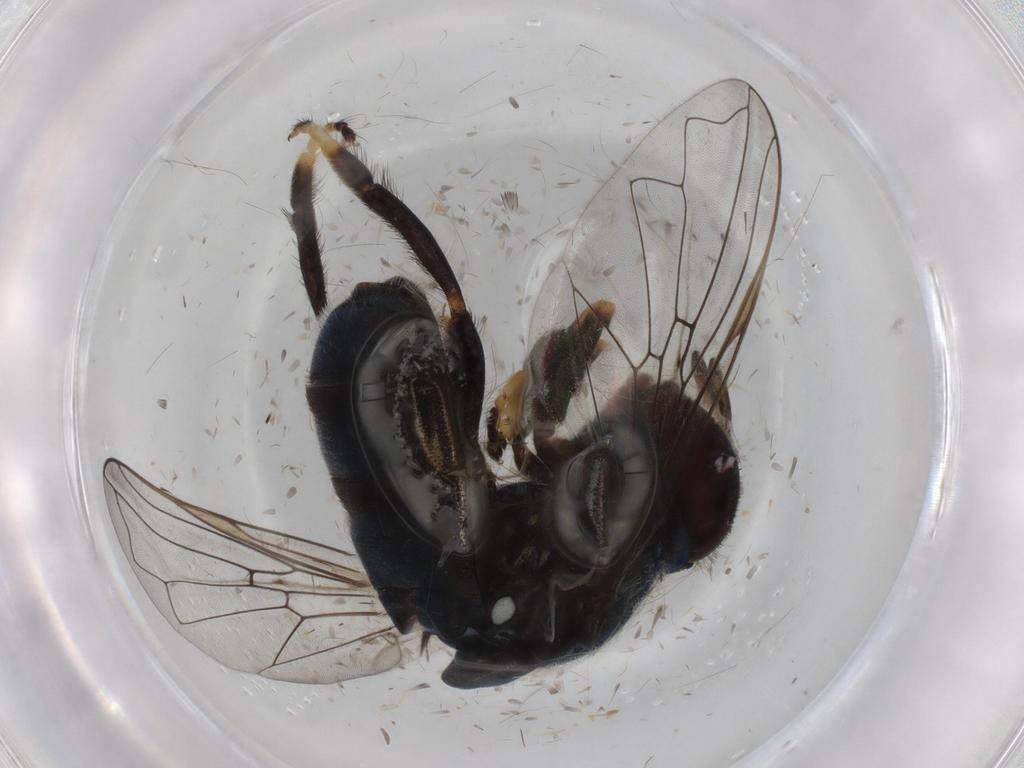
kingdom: Animalia
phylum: Arthropoda
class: Insecta
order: Diptera
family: Syrphidae
